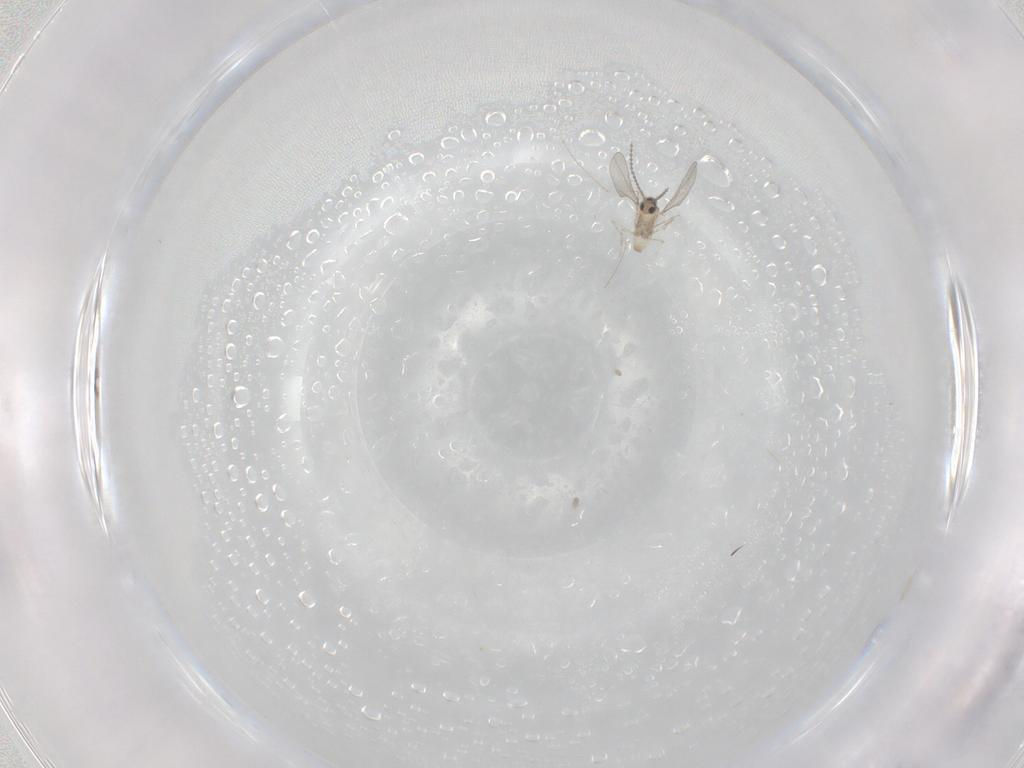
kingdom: Animalia
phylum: Arthropoda
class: Insecta
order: Diptera
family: Cecidomyiidae
